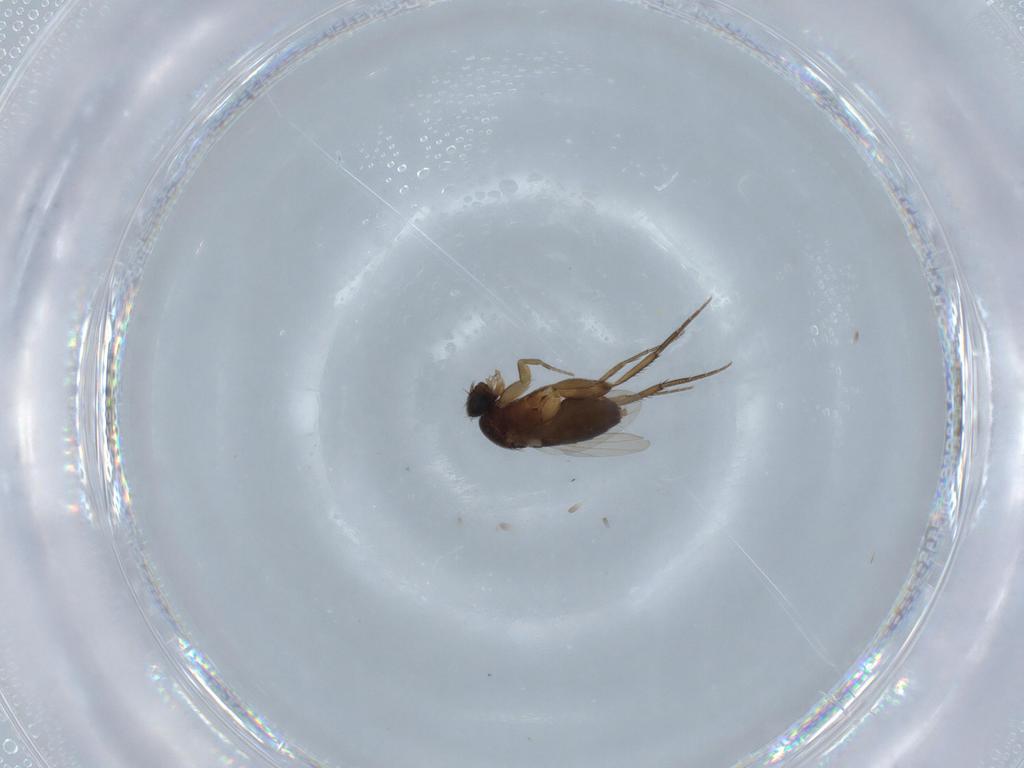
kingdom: Animalia
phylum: Arthropoda
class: Insecta
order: Diptera
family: Phoridae
